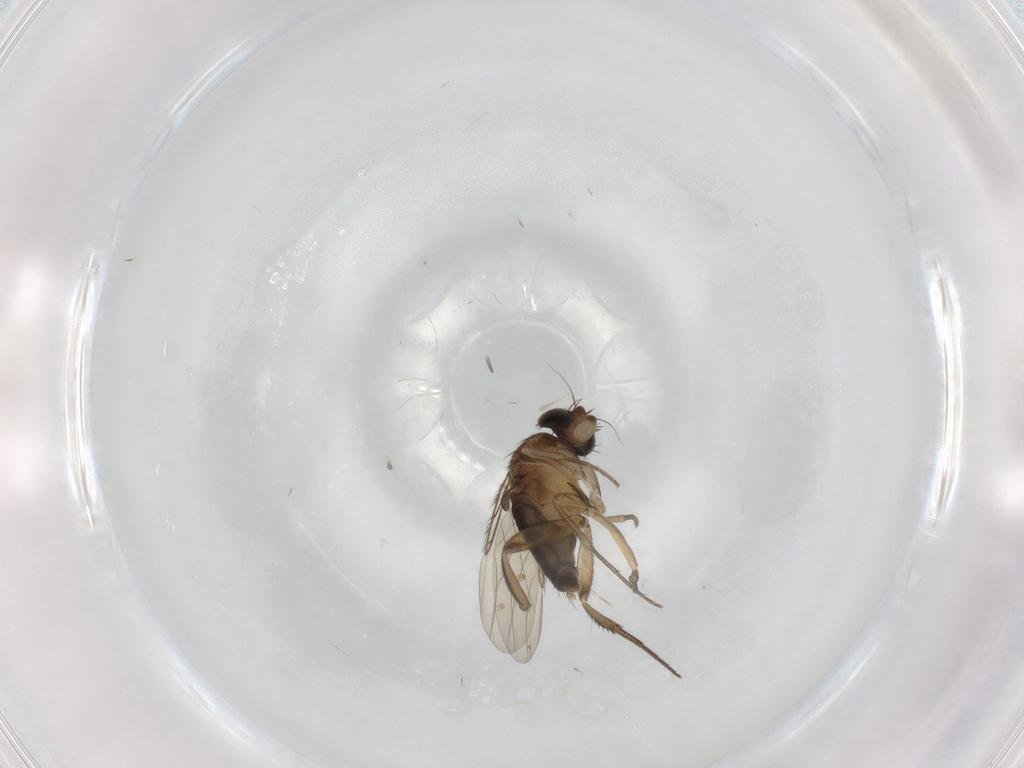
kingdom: Animalia
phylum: Arthropoda
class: Insecta
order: Diptera
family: Phoridae
